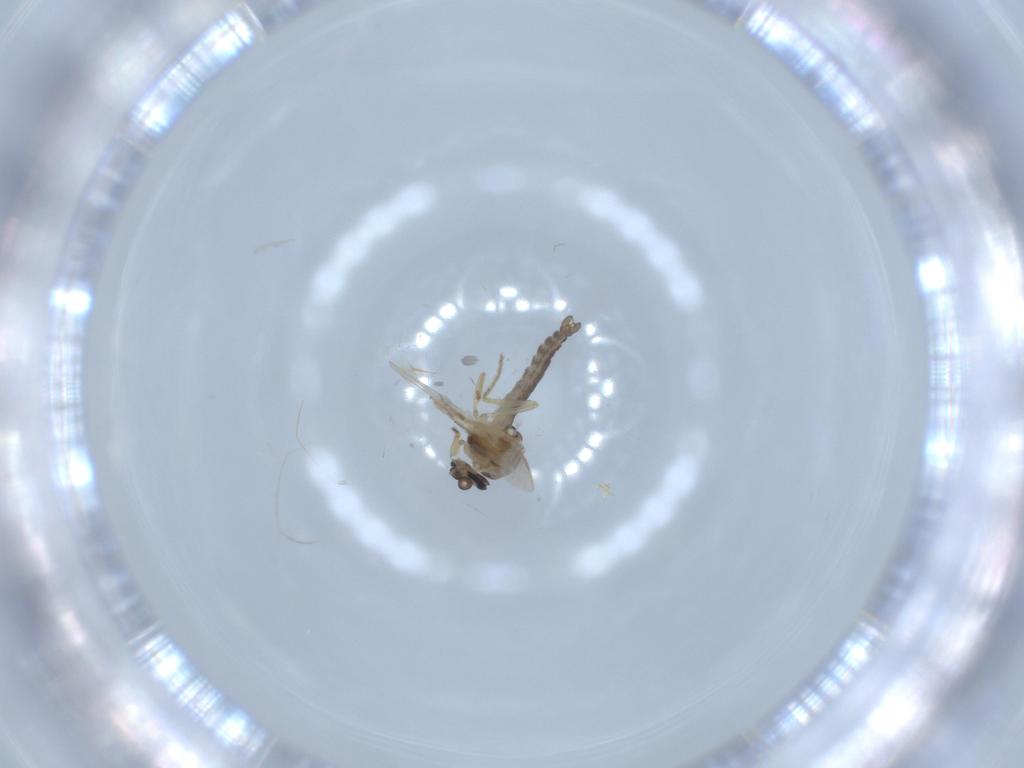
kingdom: Animalia
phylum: Arthropoda
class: Insecta
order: Diptera
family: Ceratopogonidae
